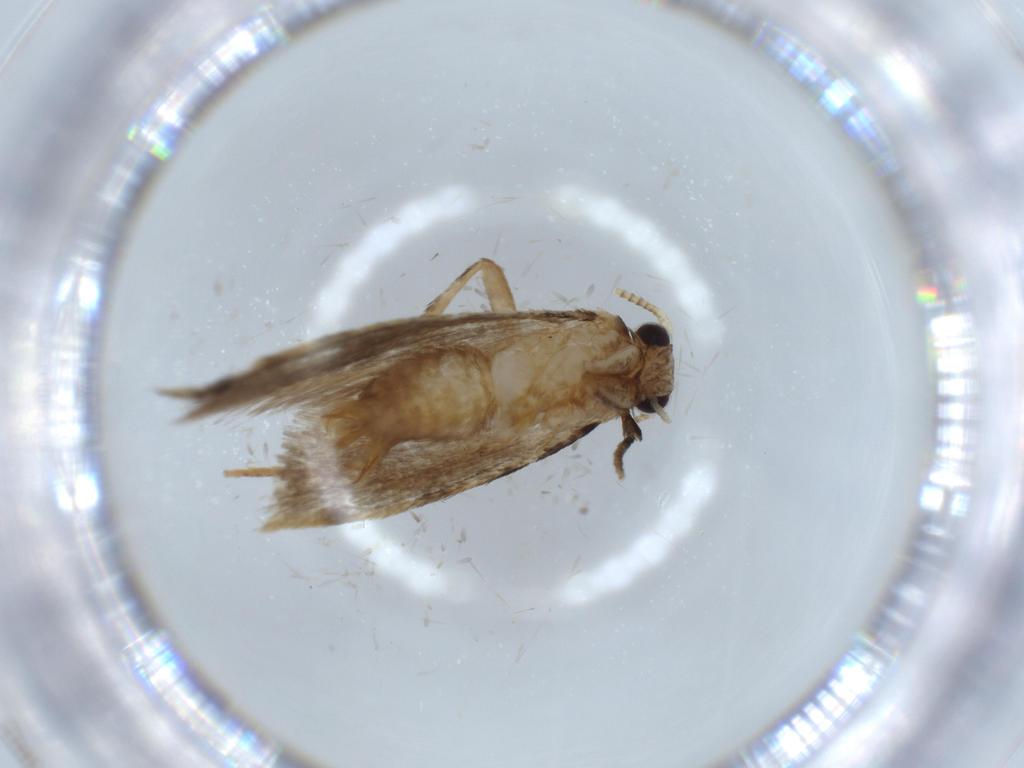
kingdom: Animalia
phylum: Arthropoda
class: Insecta
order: Lepidoptera
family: Tineidae
